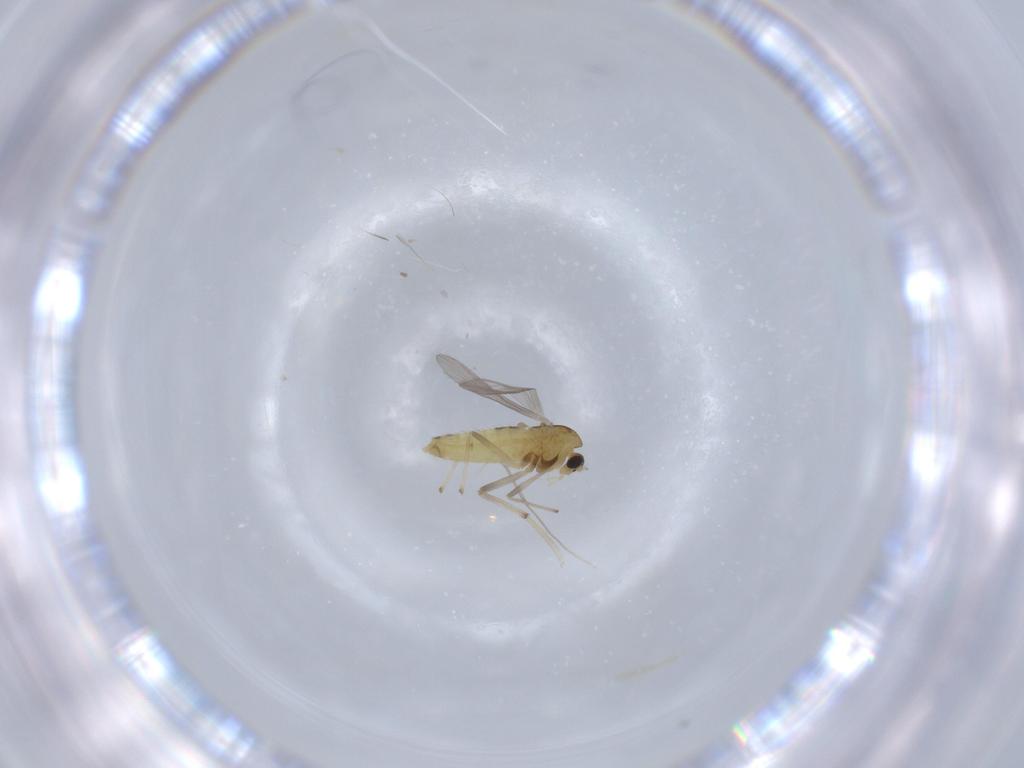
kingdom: Animalia
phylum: Arthropoda
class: Insecta
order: Diptera
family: Chironomidae
